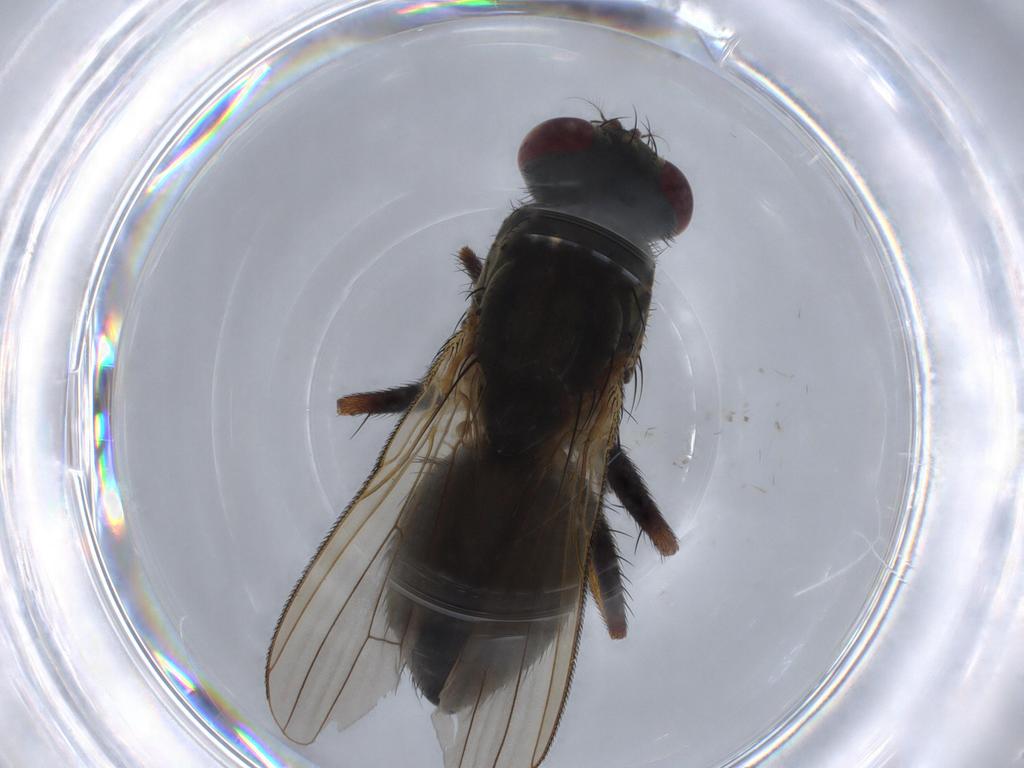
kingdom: Animalia
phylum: Arthropoda
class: Insecta
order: Diptera
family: Muscidae
